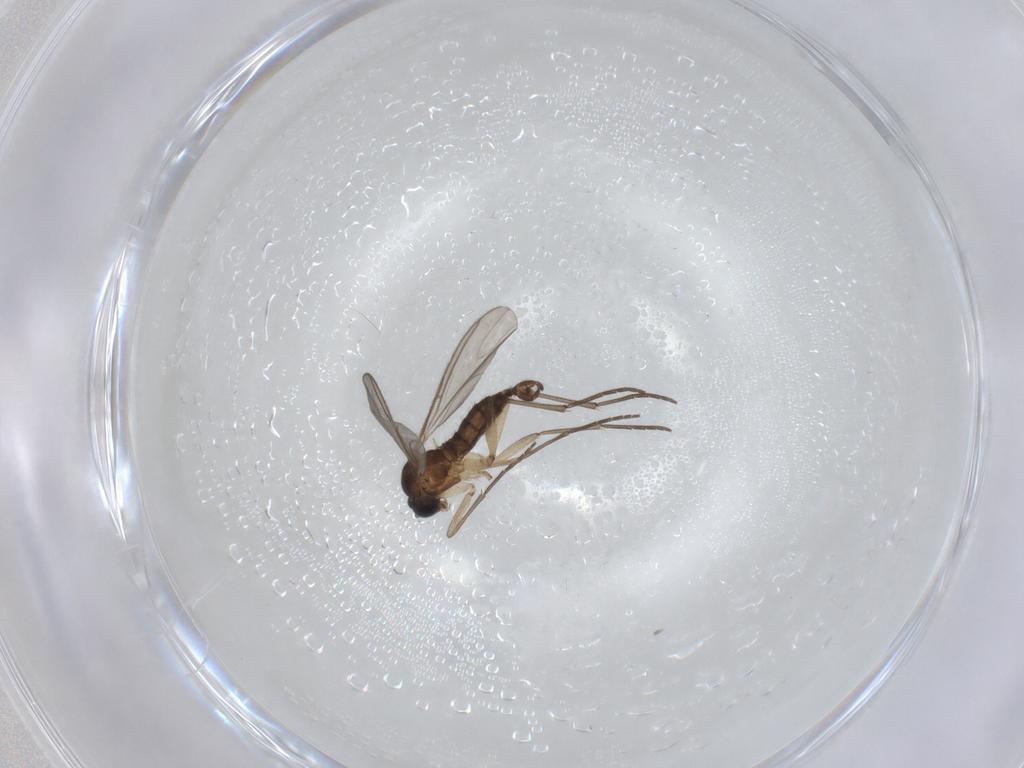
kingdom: Animalia
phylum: Arthropoda
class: Insecta
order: Diptera
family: Sciaridae
